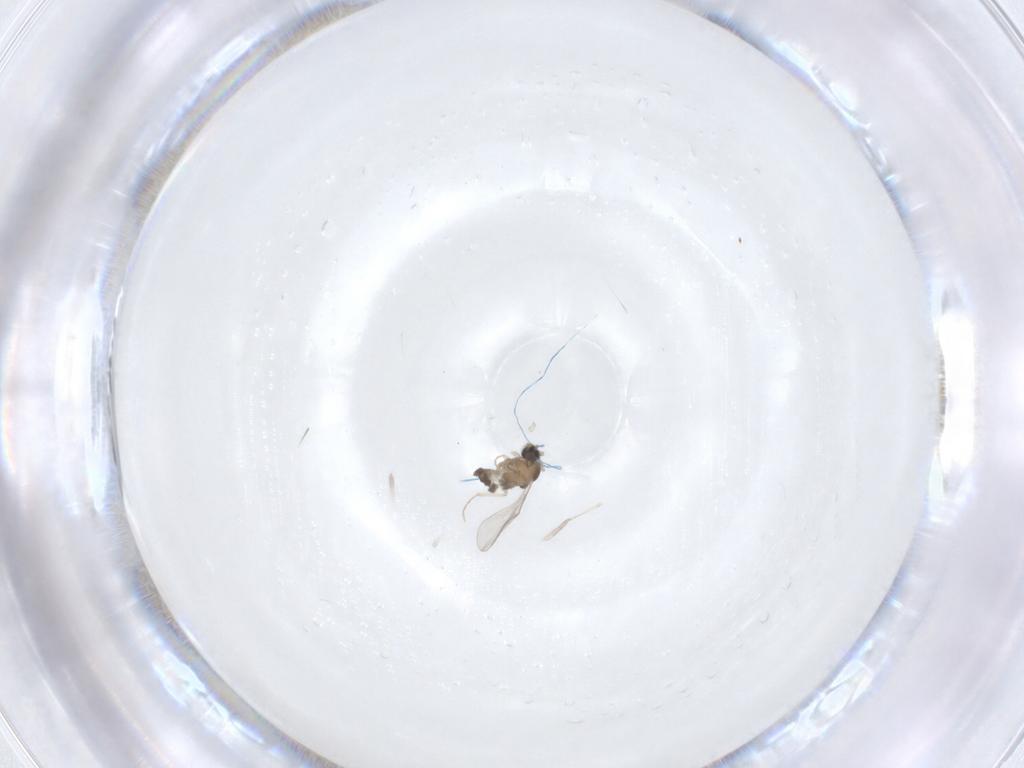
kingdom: Animalia
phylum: Arthropoda
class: Insecta
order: Diptera
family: Cecidomyiidae
